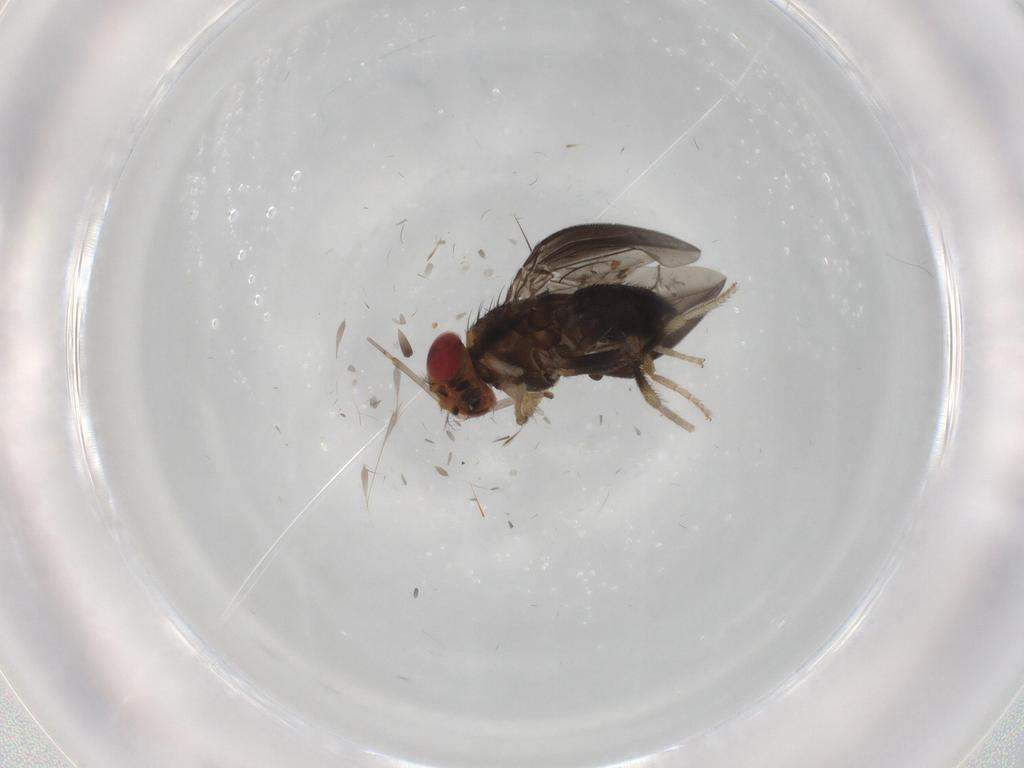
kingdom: Animalia
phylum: Arthropoda
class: Insecta
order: Diptera
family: Drosophilidae
